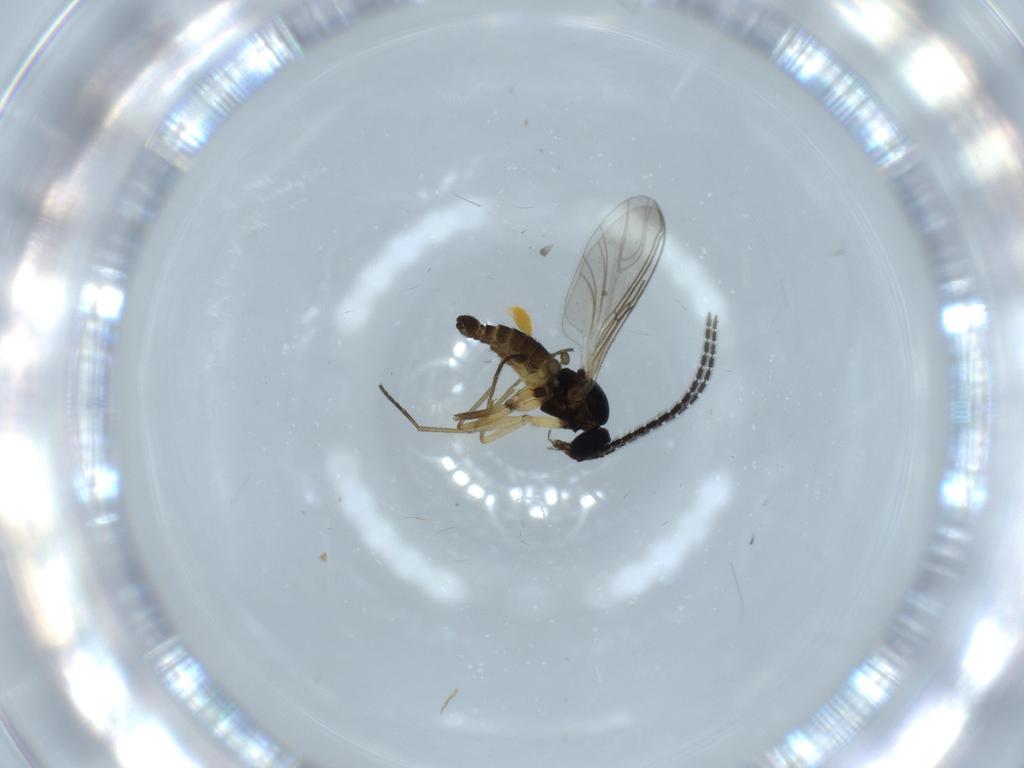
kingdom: Animalia
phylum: Arthropoda
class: Insecta
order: Diptera
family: Sciaridae
